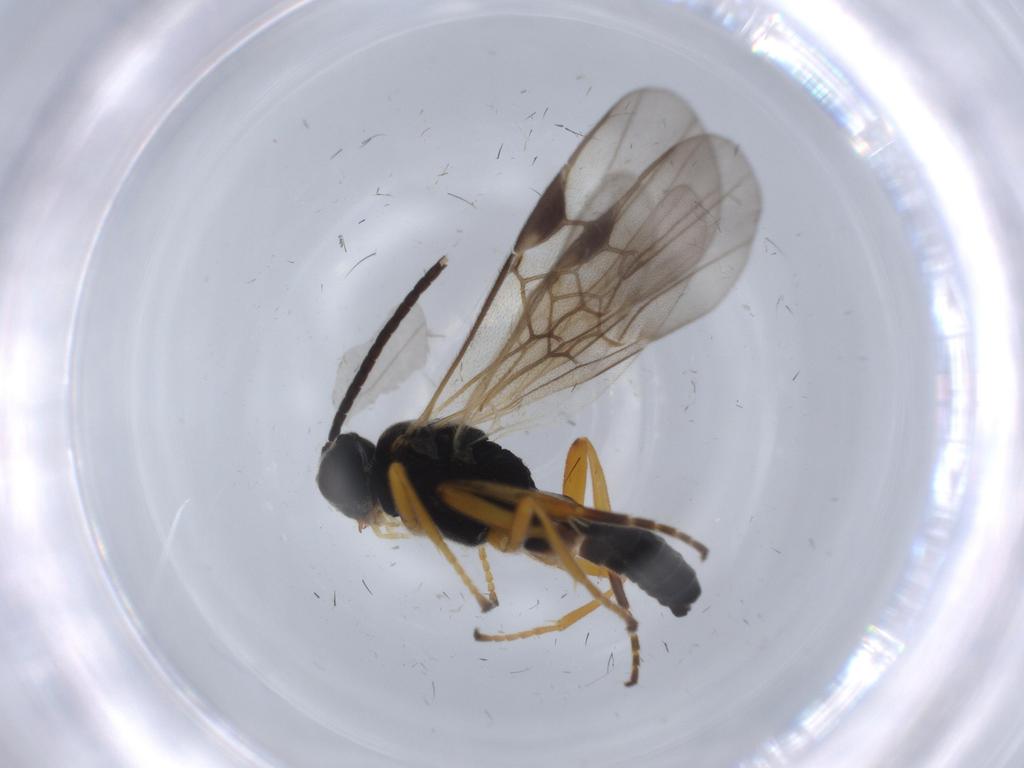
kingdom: Animalia
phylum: Arthropoda
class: Insecta
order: Hymenoptera
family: Braconidae
